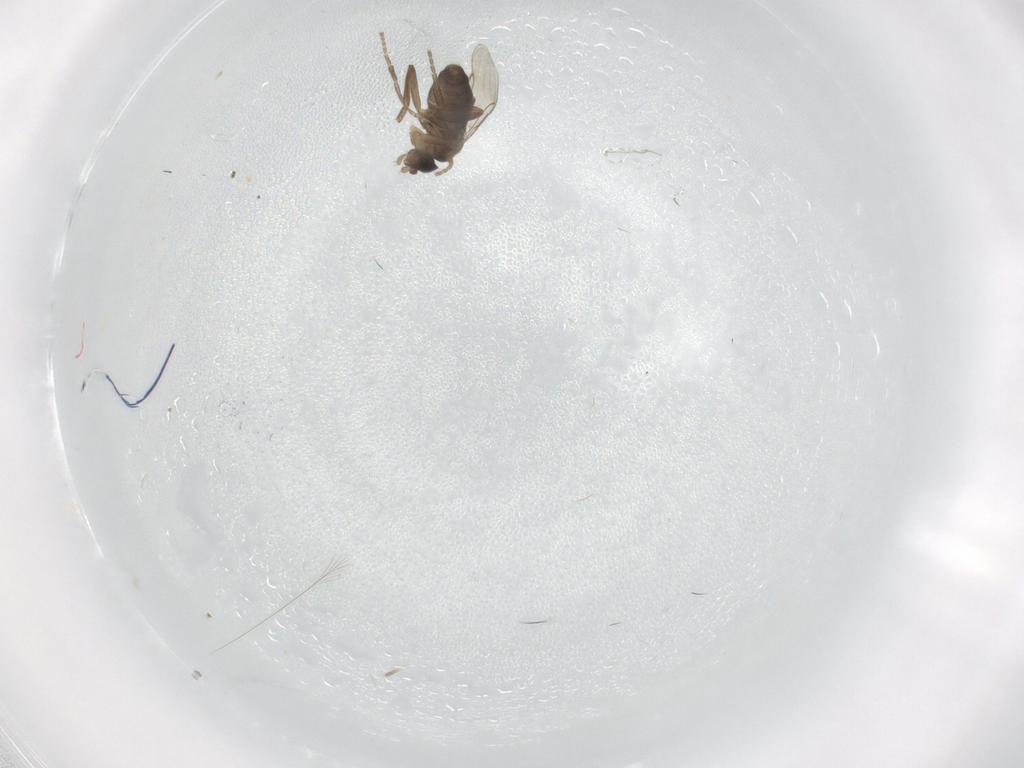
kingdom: Animalia
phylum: Arthropoda
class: Insecta
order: Diptera
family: Phoridae
